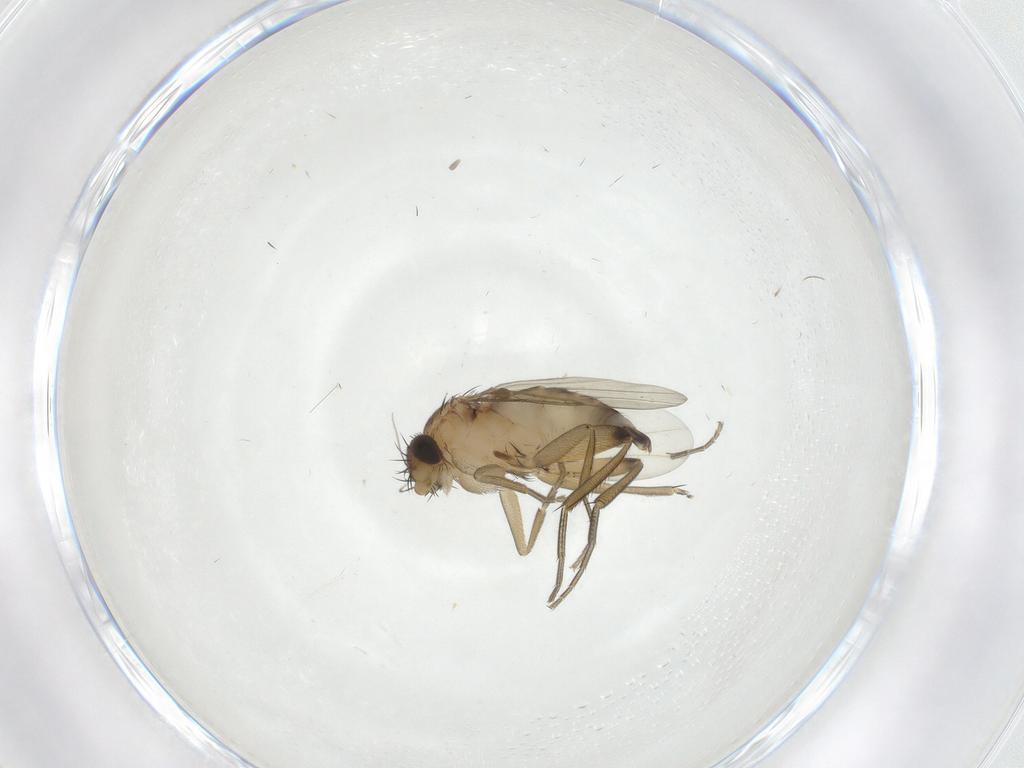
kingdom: Animalia
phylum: Arthropoda
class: Insecta
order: Diptera
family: Phoridae
